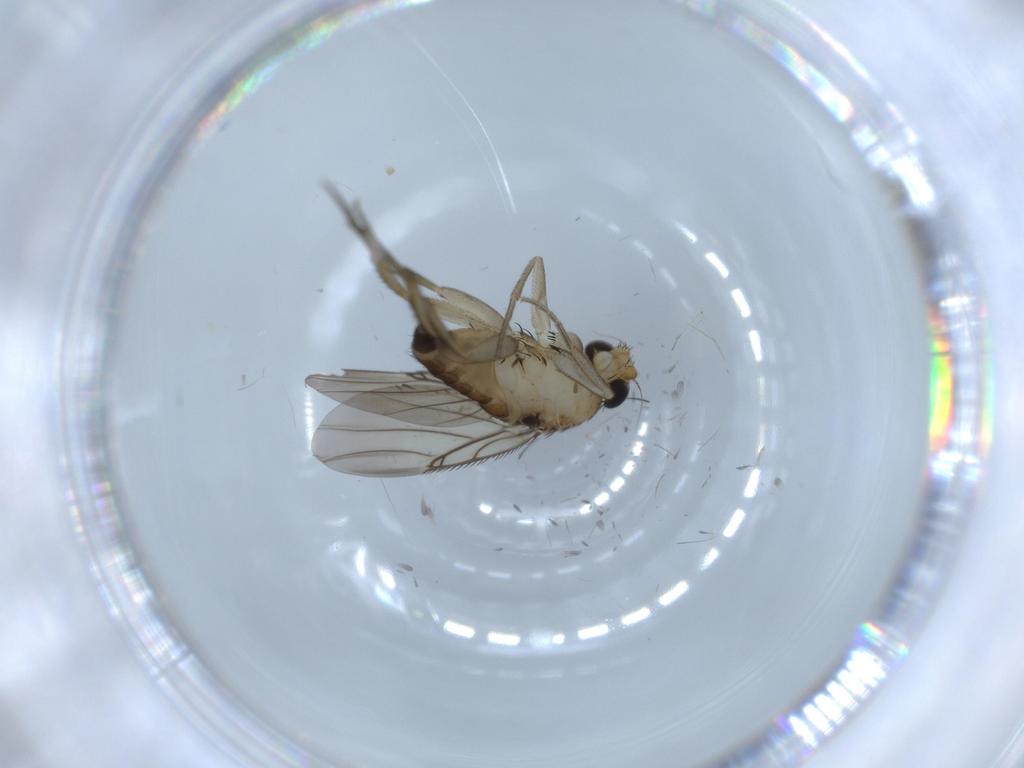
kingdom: Animalia
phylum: Arthropoda
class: Insecta
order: Diptera
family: Phoridae
